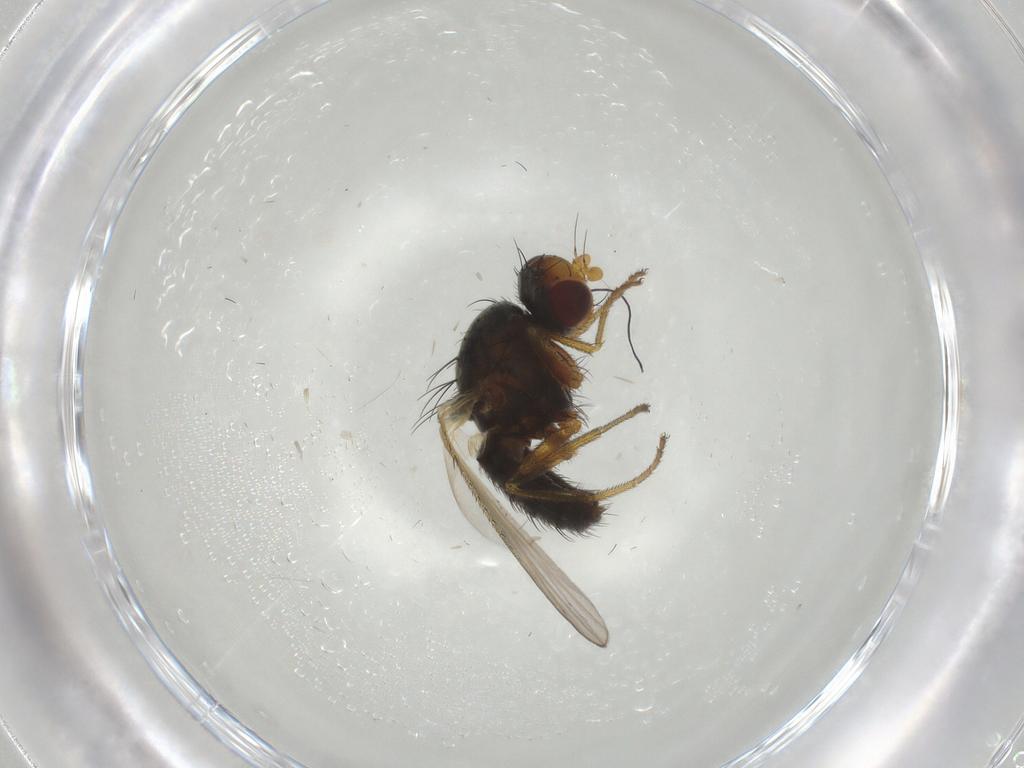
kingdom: Animalia
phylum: Arthropoda
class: Insecta
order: Diptera
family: Heleomyzidae
